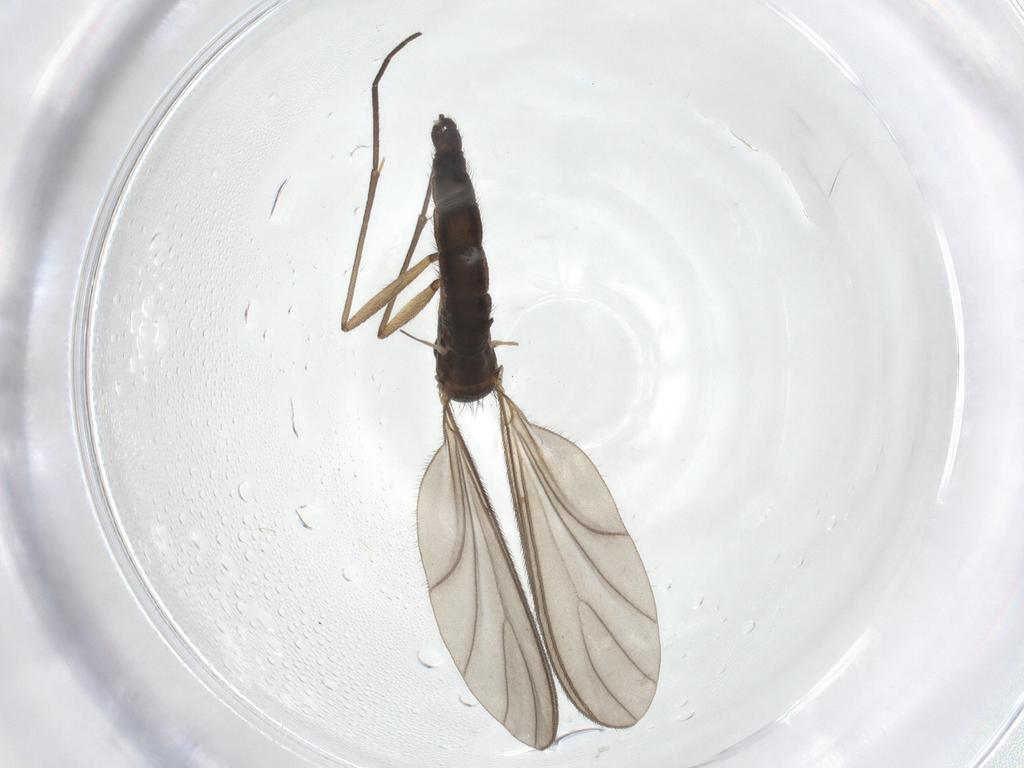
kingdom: Animalia
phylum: Arthropoda
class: Insecta
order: Diptera
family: Sciaridae
